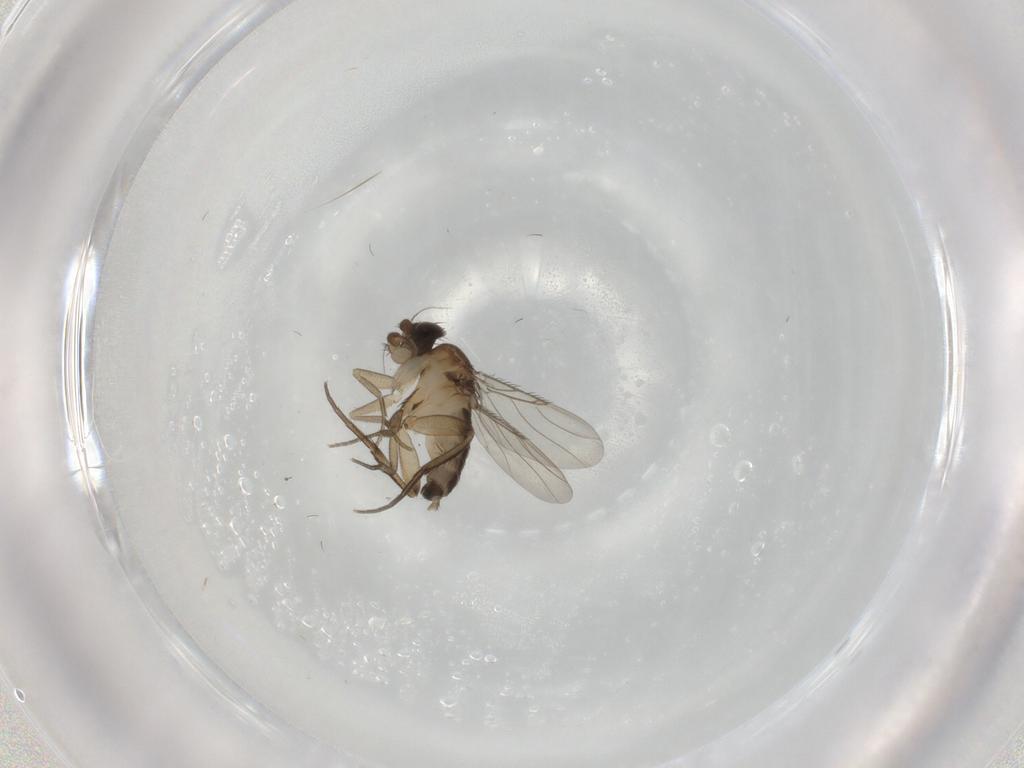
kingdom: Animalia
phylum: Arthropoda
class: Insecta
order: Diptera
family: Phoridae
